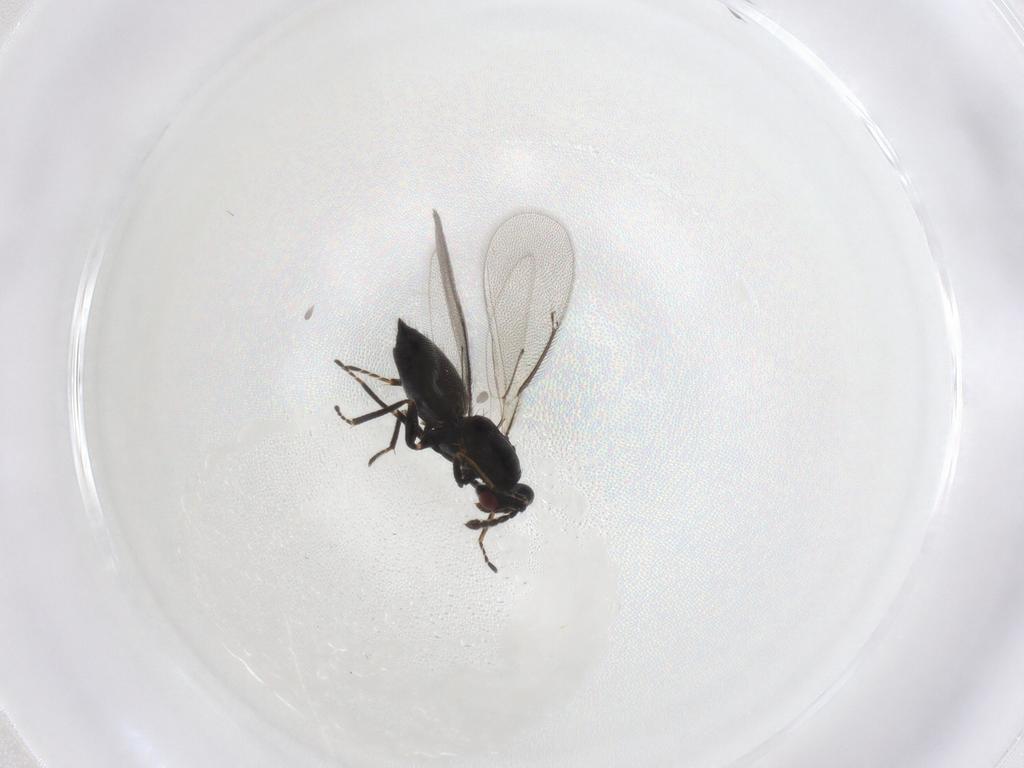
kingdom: Animalia
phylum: Arthropoda
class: Insecta
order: Hymenoptera
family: Eulophidae
